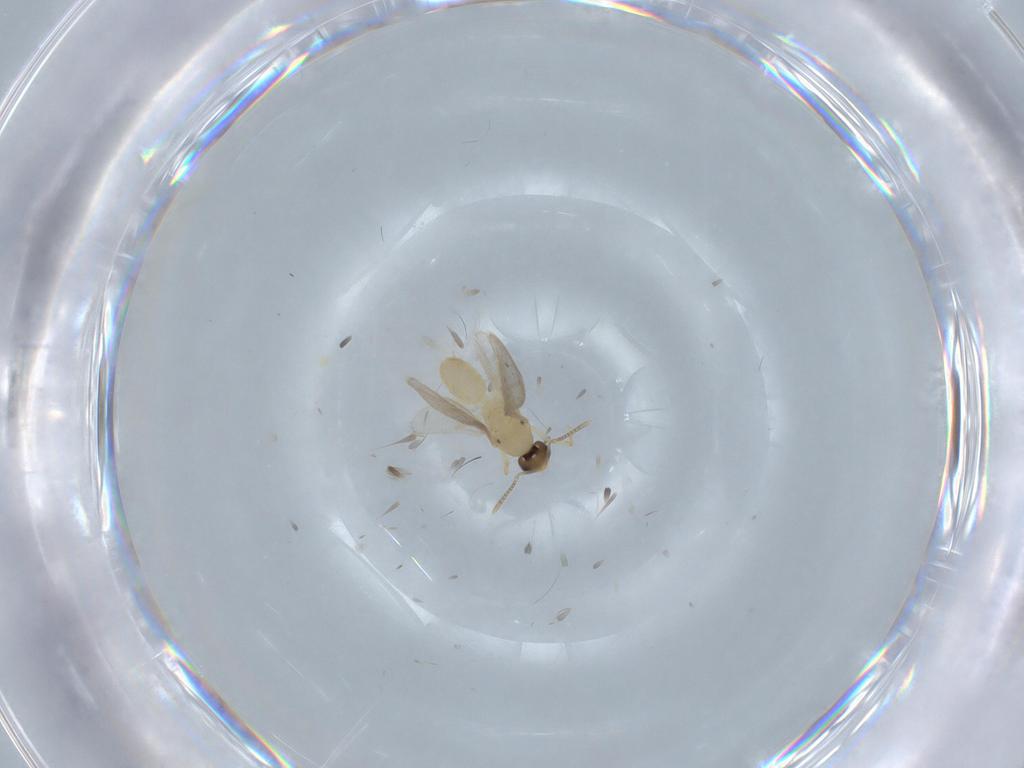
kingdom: Animalia
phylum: Arthropoda
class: Insecta
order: Hymenoptera
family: Formicidae
